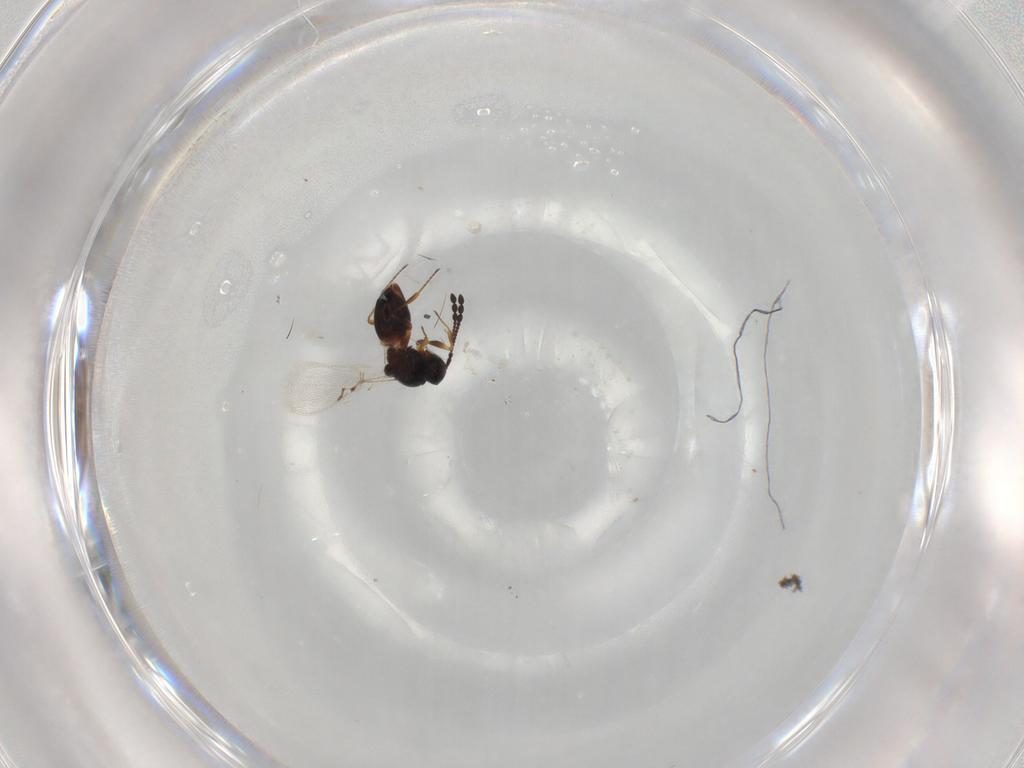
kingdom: Animalia
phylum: Arthropoda
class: Insecta
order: Hymenoptera
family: Figitidae
